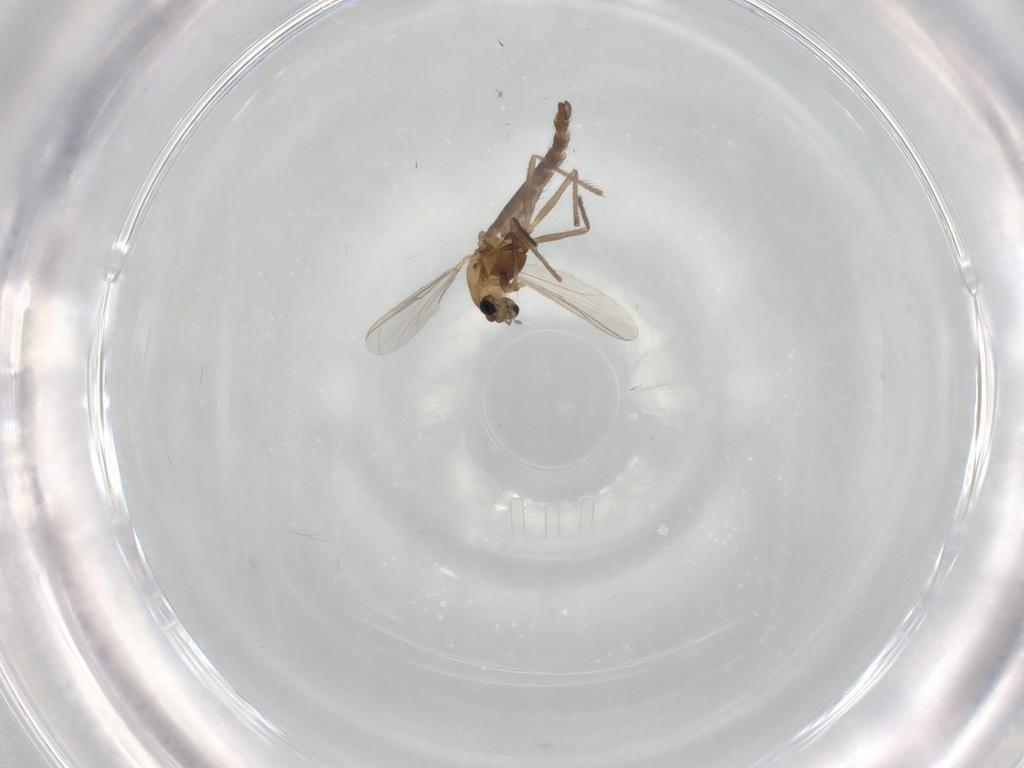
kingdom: Animalia
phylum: Arthropoda
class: Insecta
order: Diptera
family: Chironomidae
